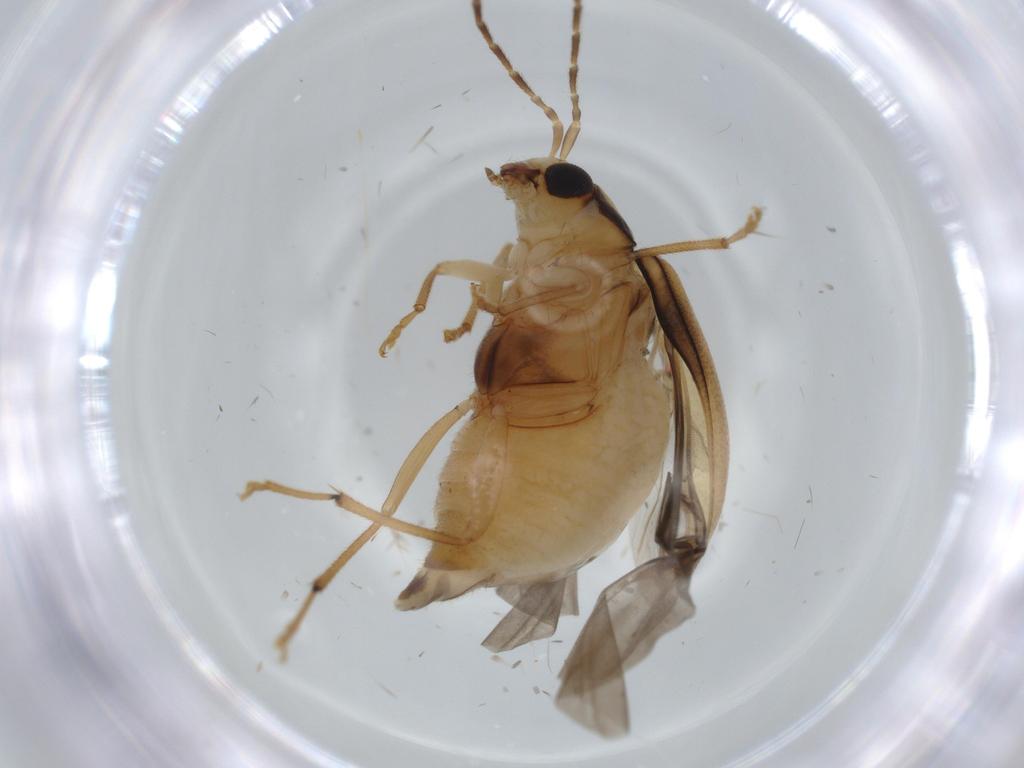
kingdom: Animalia
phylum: Arthropoda
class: Insecta
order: Coleoptera
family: Chrysomelidae
